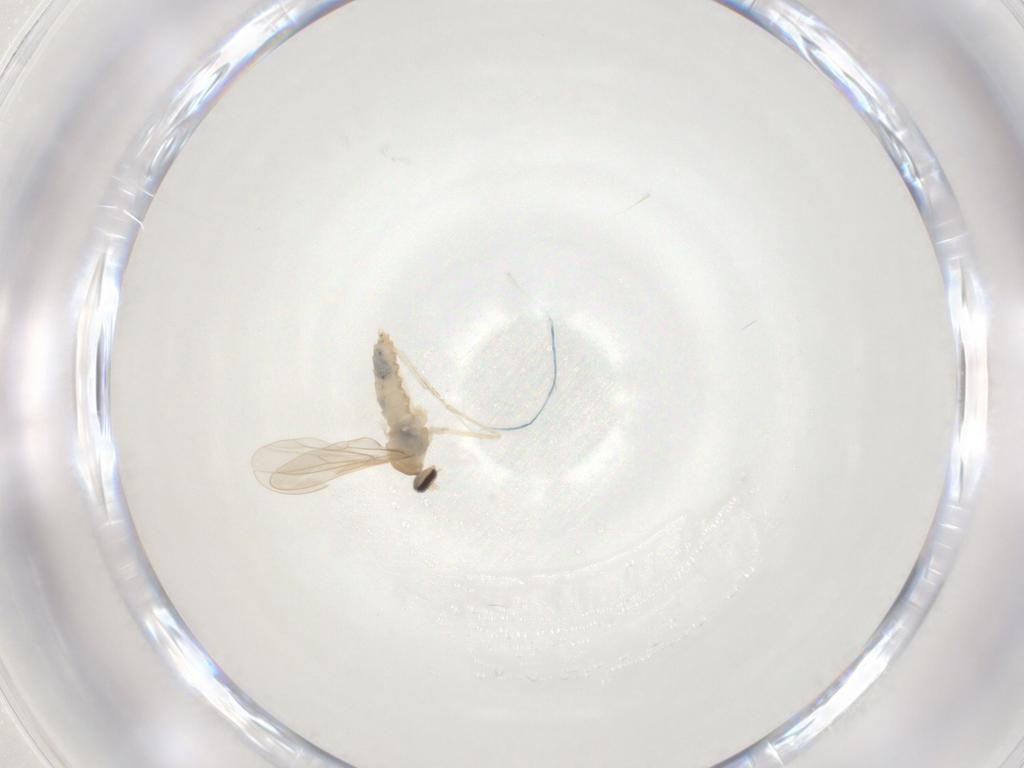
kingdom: Animalia
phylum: Arthropoda
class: Insecta
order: Diptera
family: Cecidomyiidae
